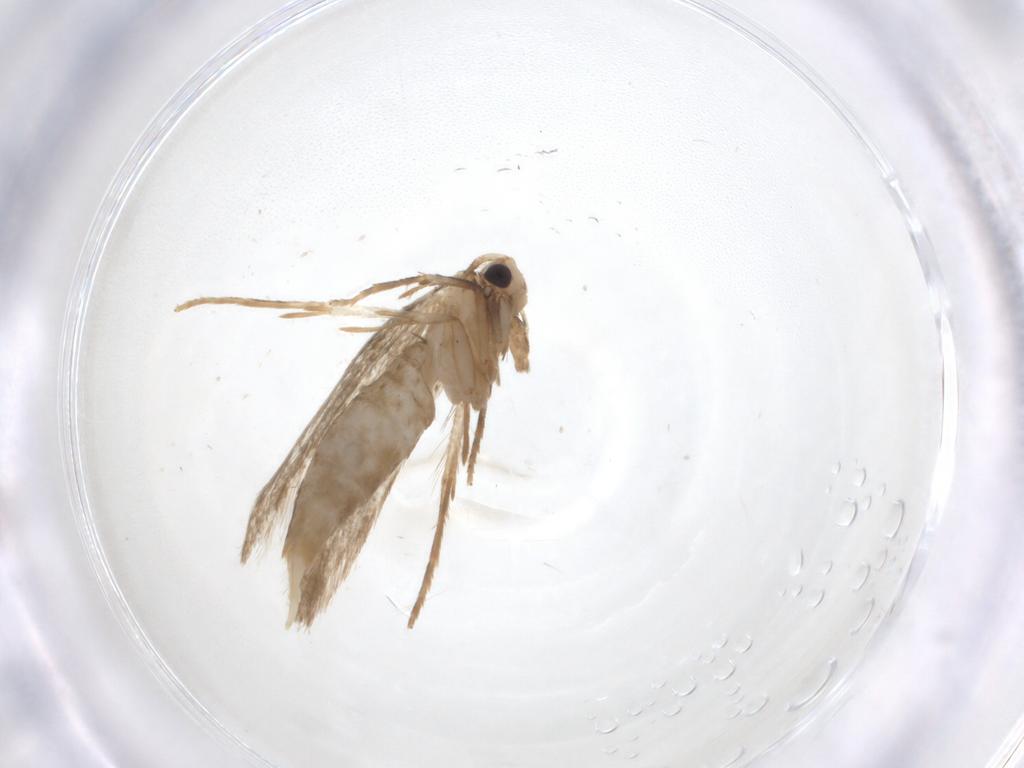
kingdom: Animalia
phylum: Arthropoda
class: Insecta
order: Lepidoptera
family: Tineidae
